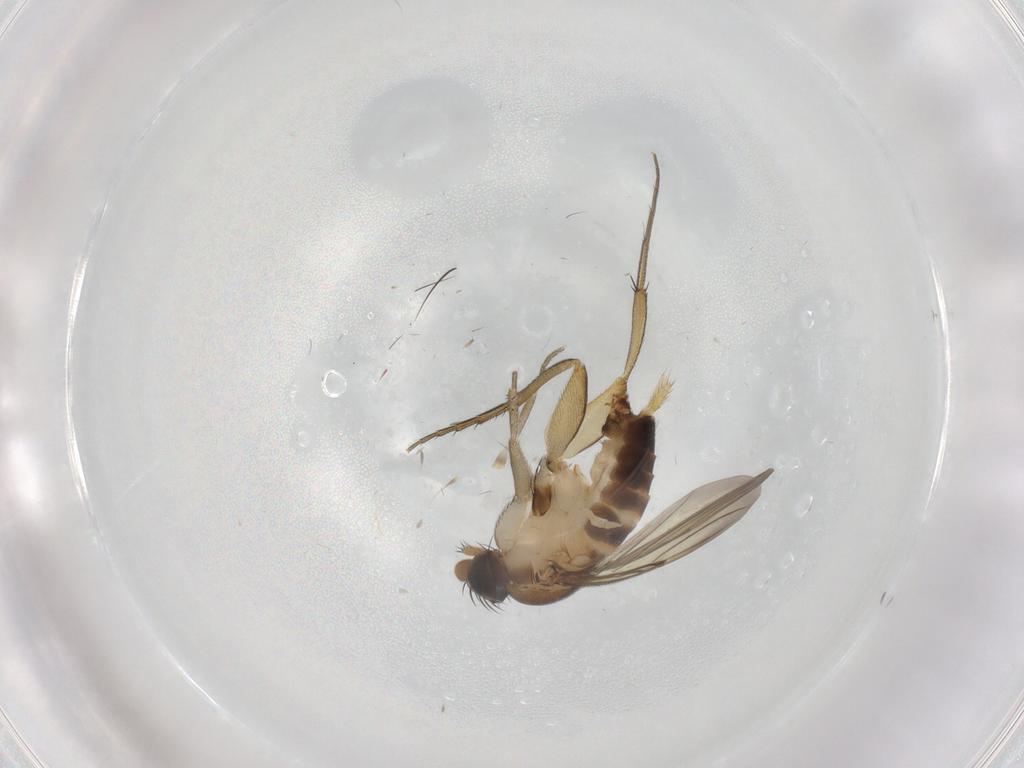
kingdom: Animalia
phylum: Arthropoda
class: Insecta
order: Diptera
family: Phoridae
